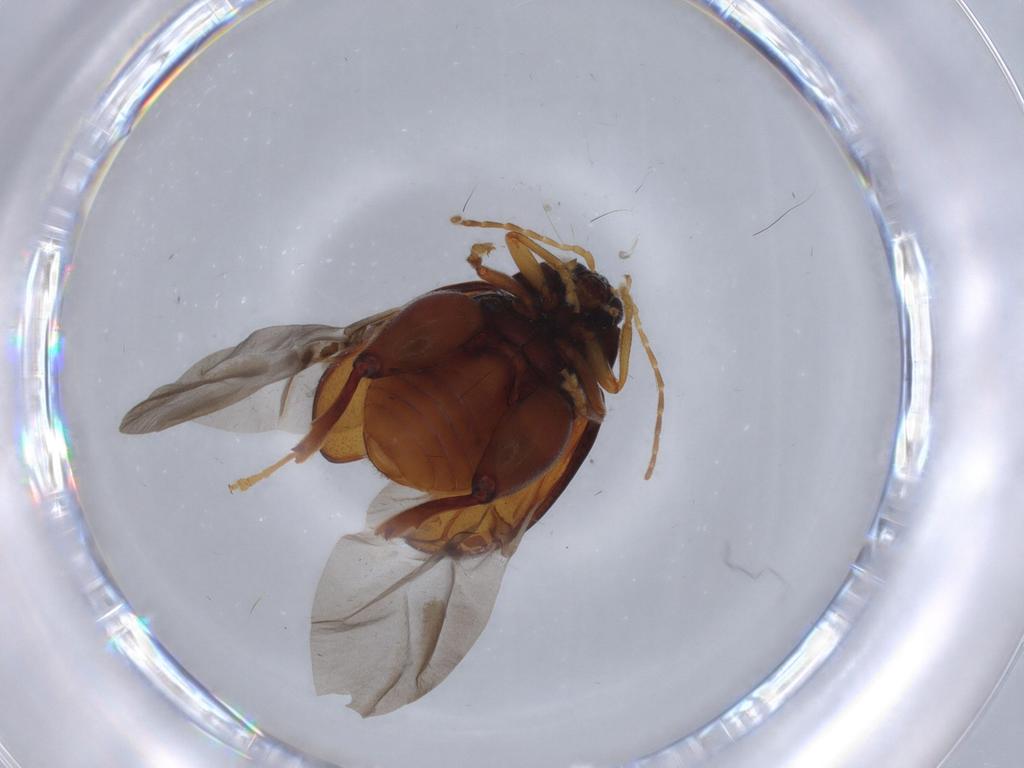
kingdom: Animalia
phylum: Arthropoda
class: Insecta
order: Coleoptera
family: Chrysomelidae
